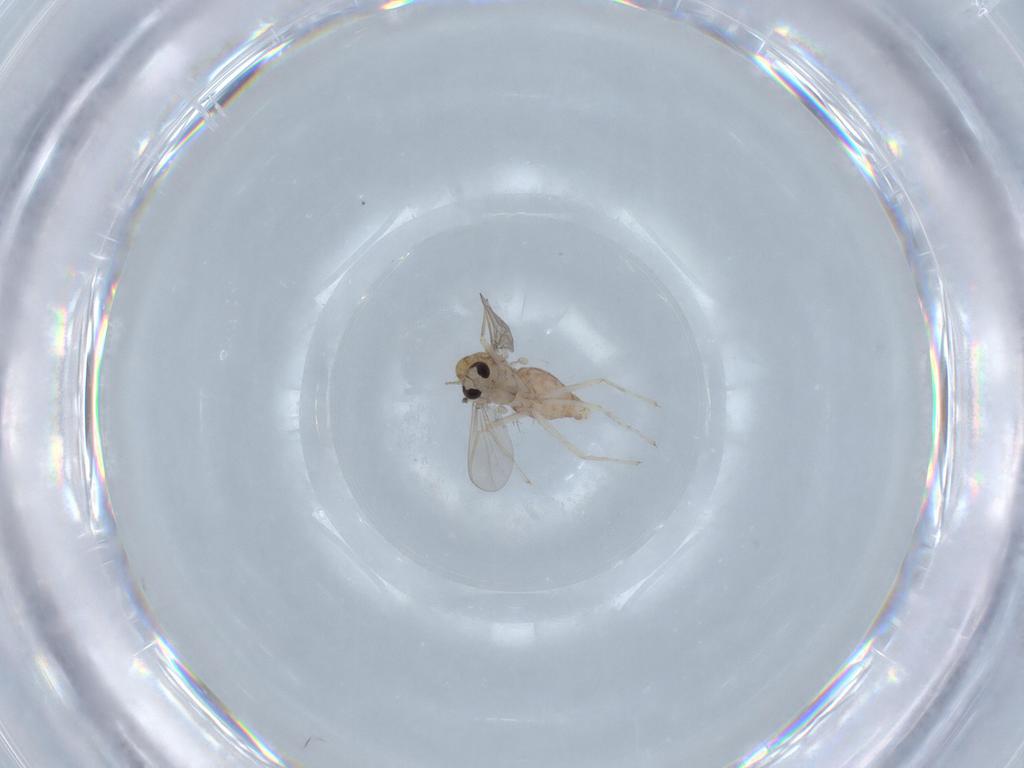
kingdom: Animalia
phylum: Arthropoda
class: Insecta
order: Diptera
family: Chironomidae
